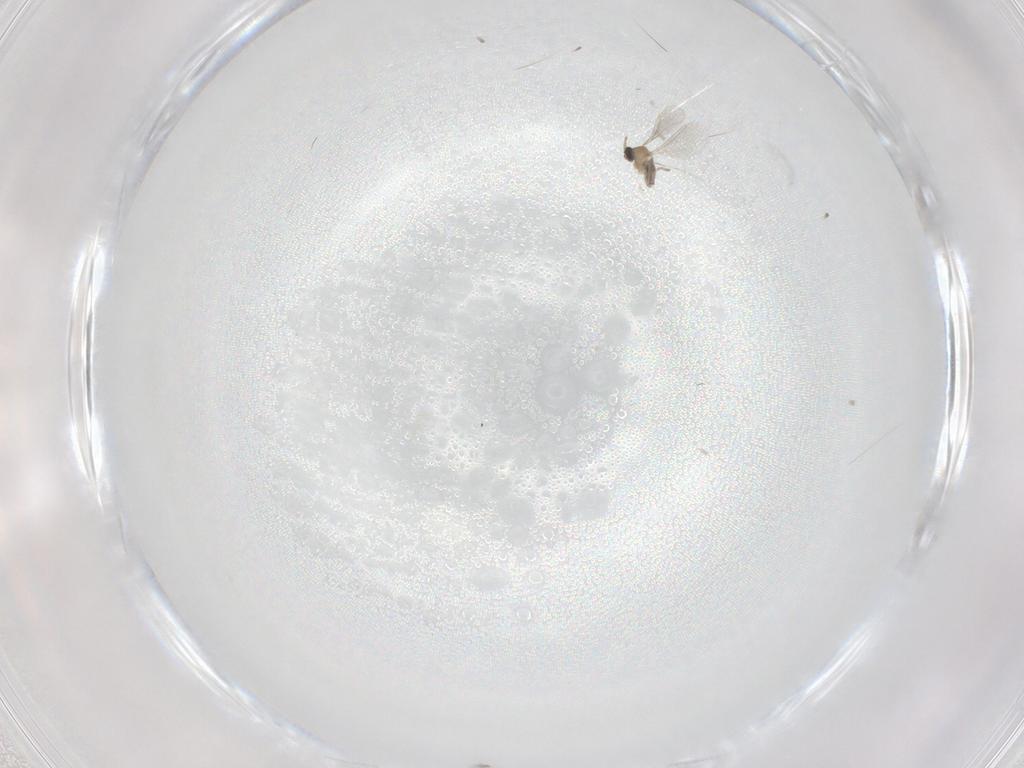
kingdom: Animalia
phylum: Arthropoda
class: Insecta
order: Diptera
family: Cecidomyiidae
